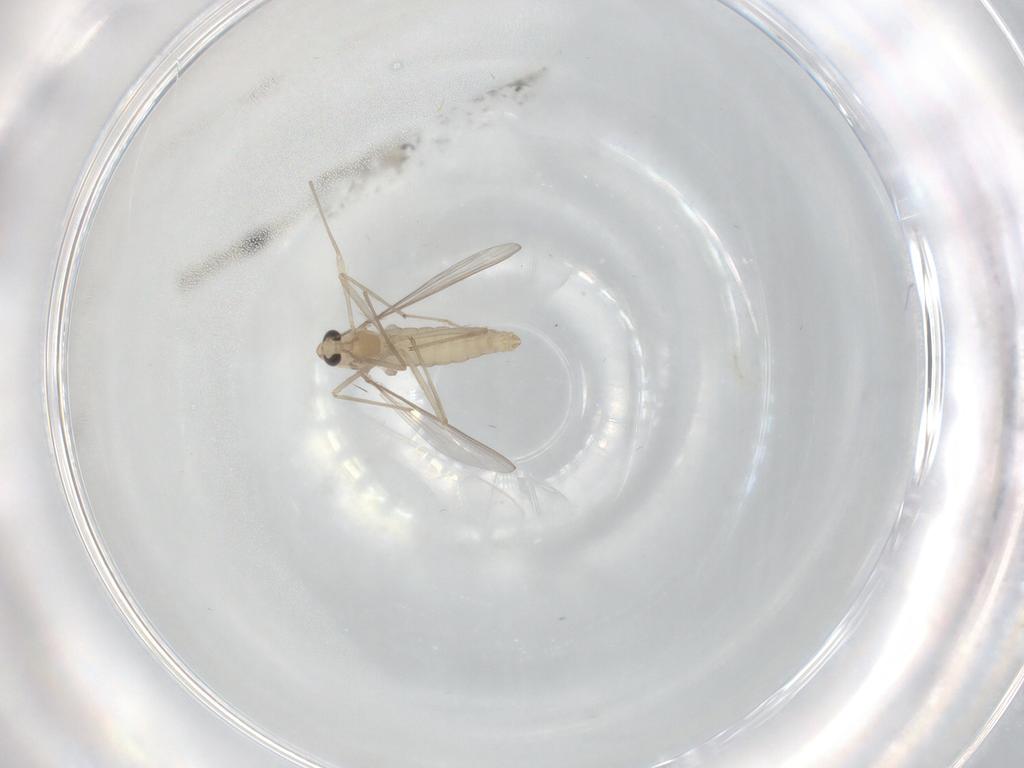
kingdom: Animalia
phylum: Arthropoda
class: Insecta
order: Diptera
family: Chironomidae
